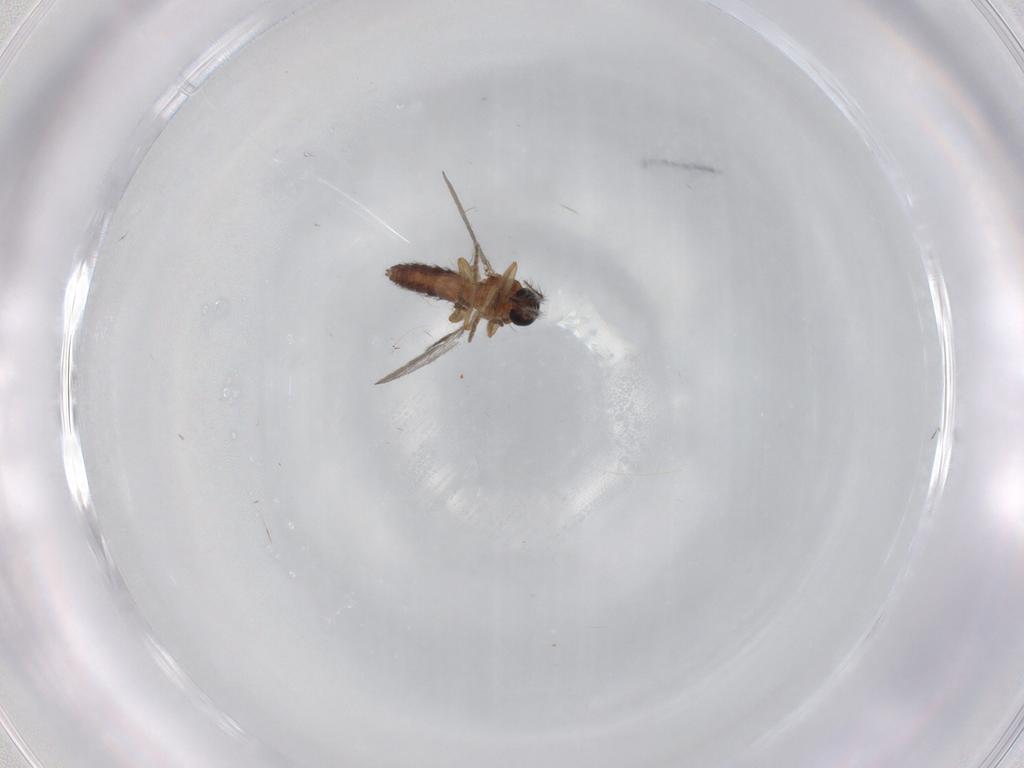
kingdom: Animalia
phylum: Arthropoda
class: Insecta
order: Diptera
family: Ceratopogonidae
